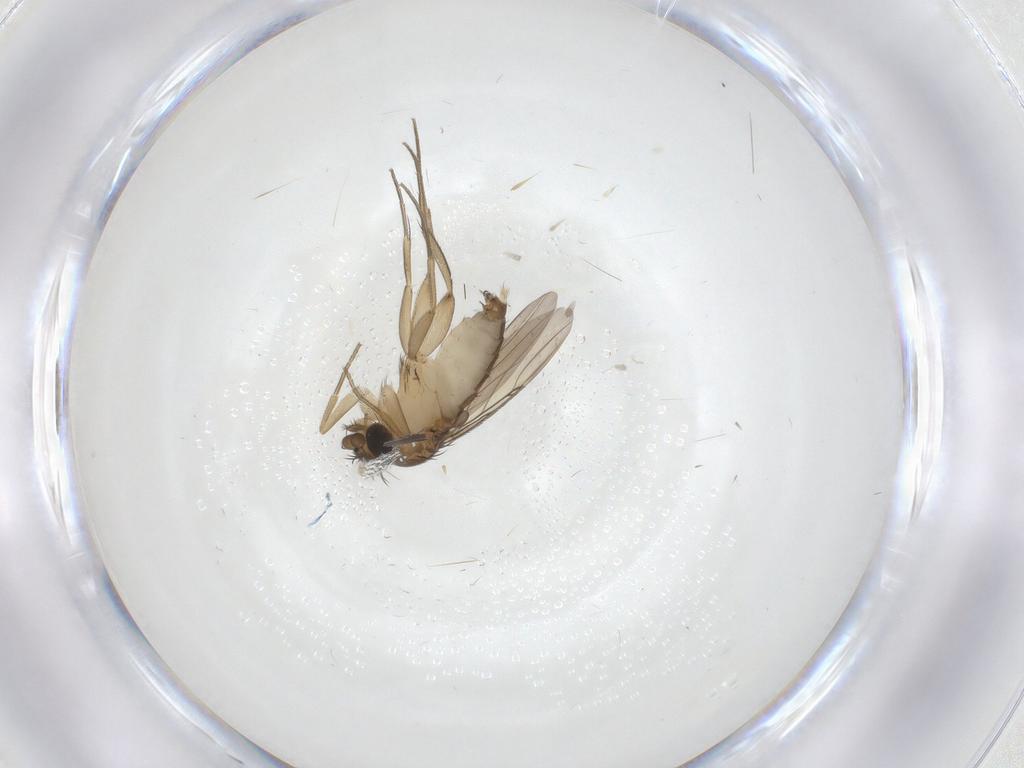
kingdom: Animalia
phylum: Arthropoda
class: Insecta
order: Diptera
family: Phoridae
